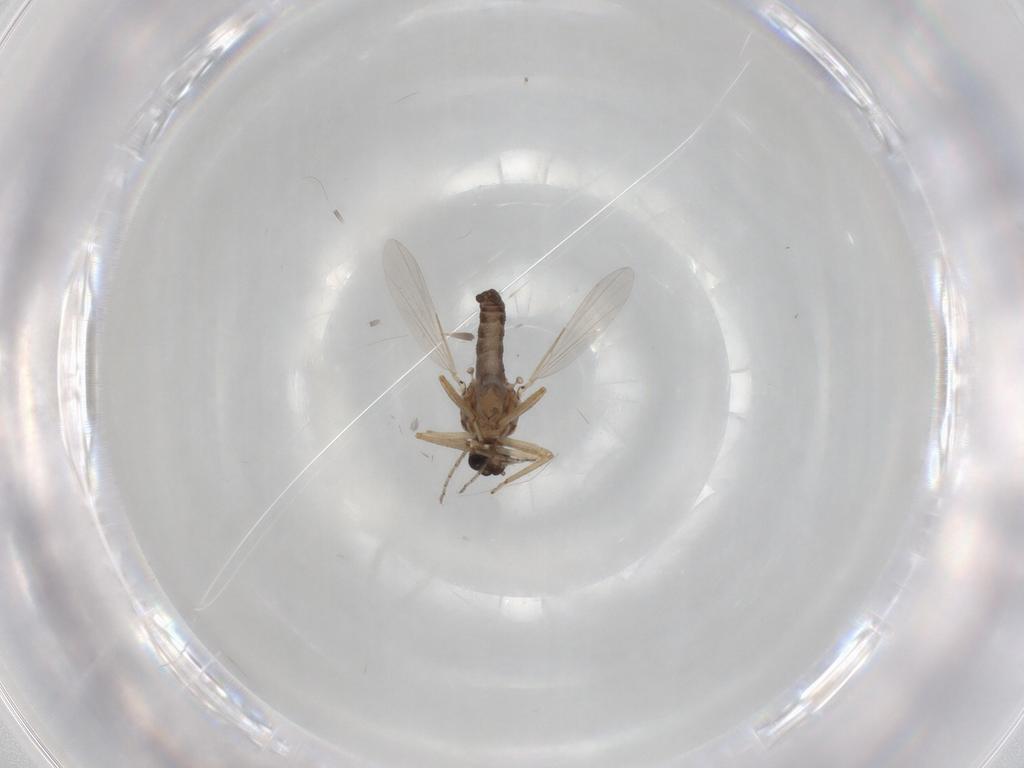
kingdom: Animalia
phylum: Arthropoda
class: Insecta
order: Diptera
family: Ceratopogonidae
